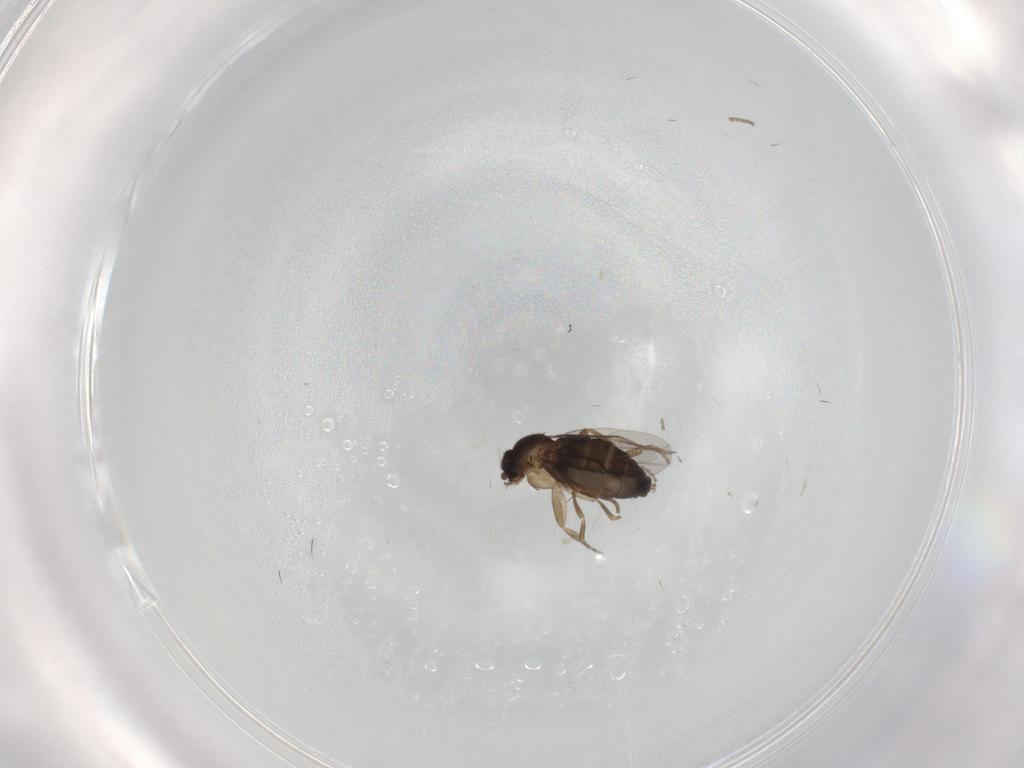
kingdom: Animalia
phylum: Arthropoda
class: Insecta
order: Diptera
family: Phoridae
